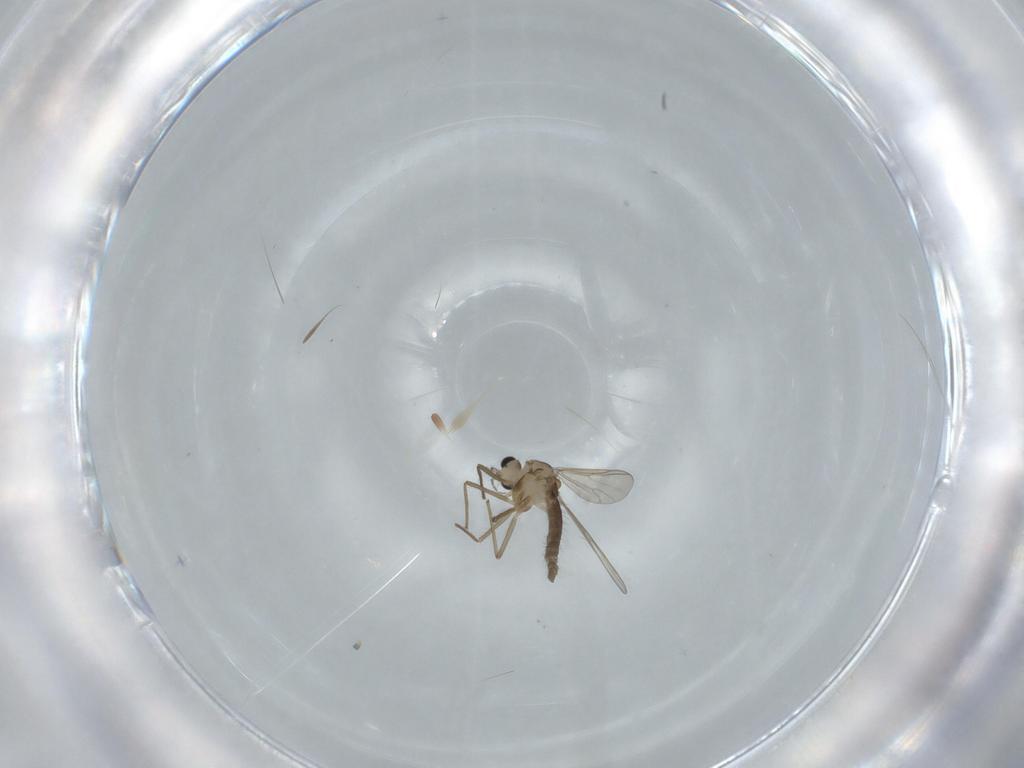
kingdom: Animalia
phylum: Arthropoda
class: Insecta
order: Diptera
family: Chironomidae
